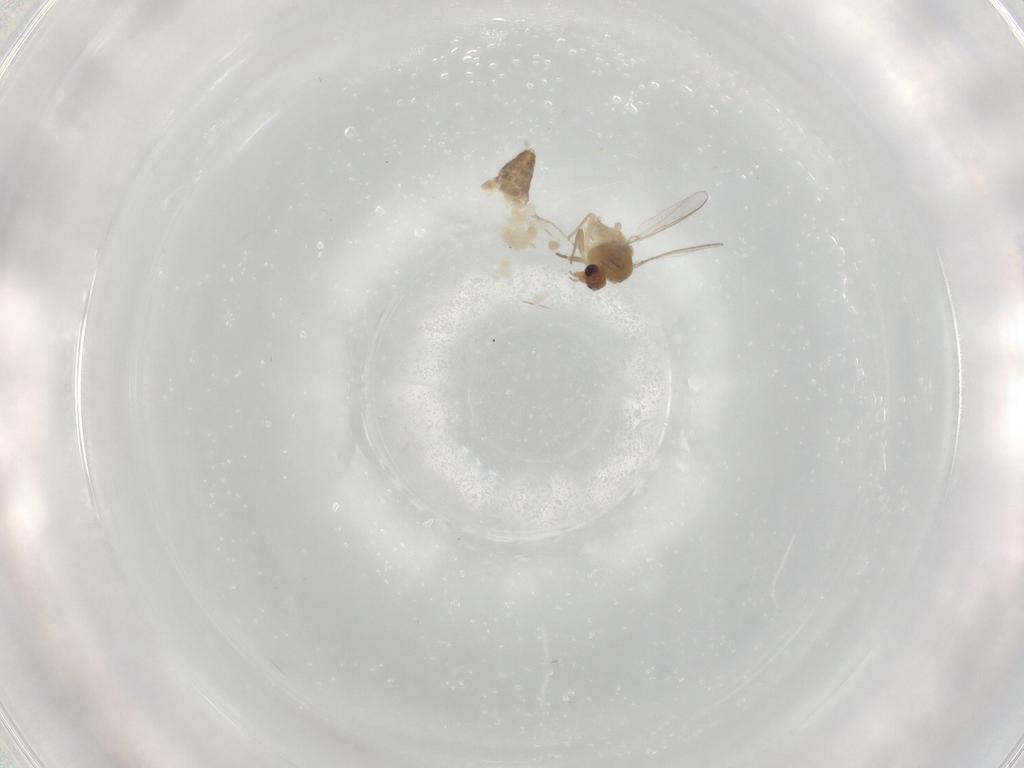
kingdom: Animalia
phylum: Arthropoda
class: Insecta
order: Diptera
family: Chironomidae
